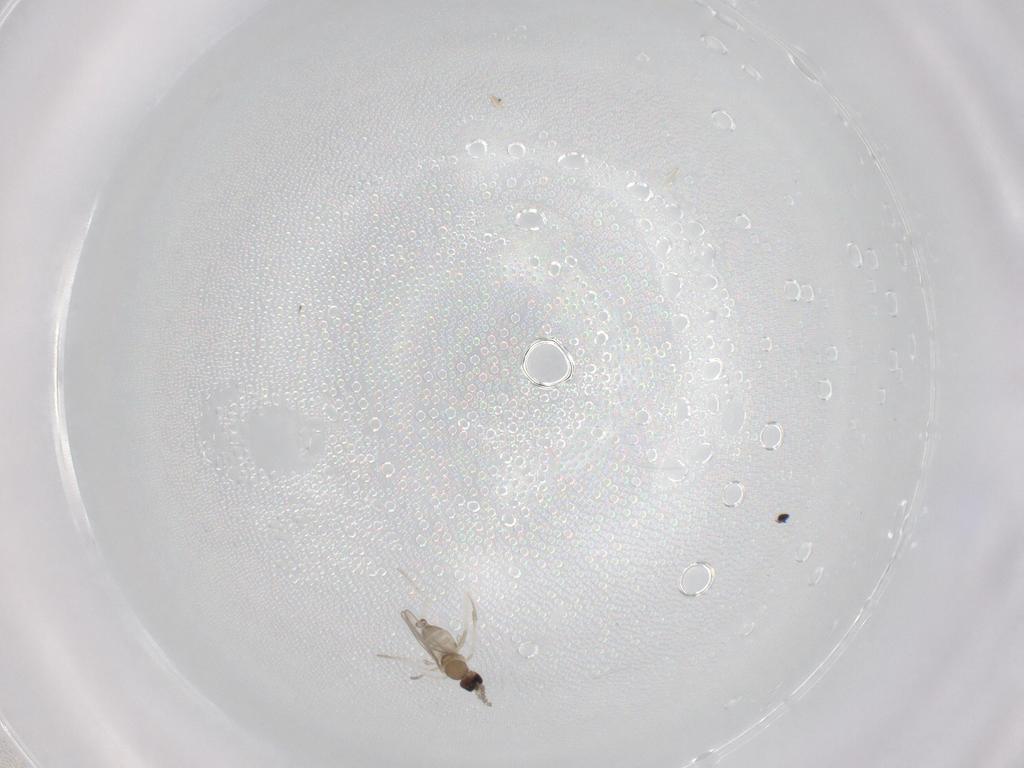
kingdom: Animalia
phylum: Arthropoda
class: Insecta
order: Diptera
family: Cecidomyiidae
